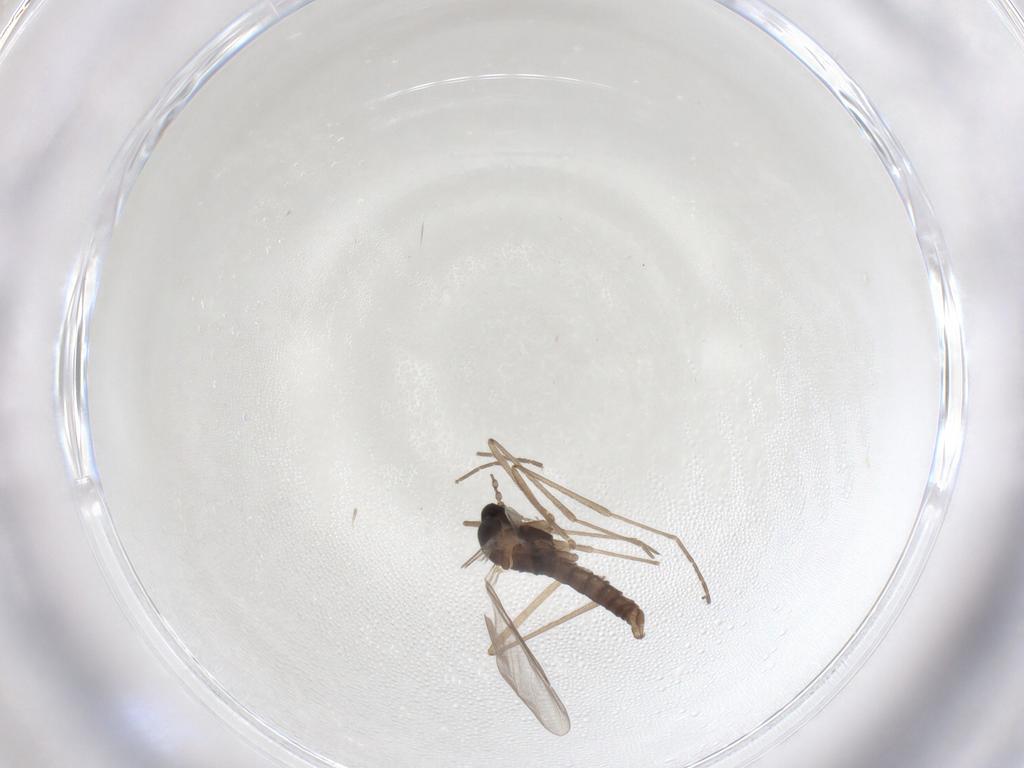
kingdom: Animalia
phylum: Arthropoda
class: Insecta
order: Diptera
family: Cecidomyiidae
